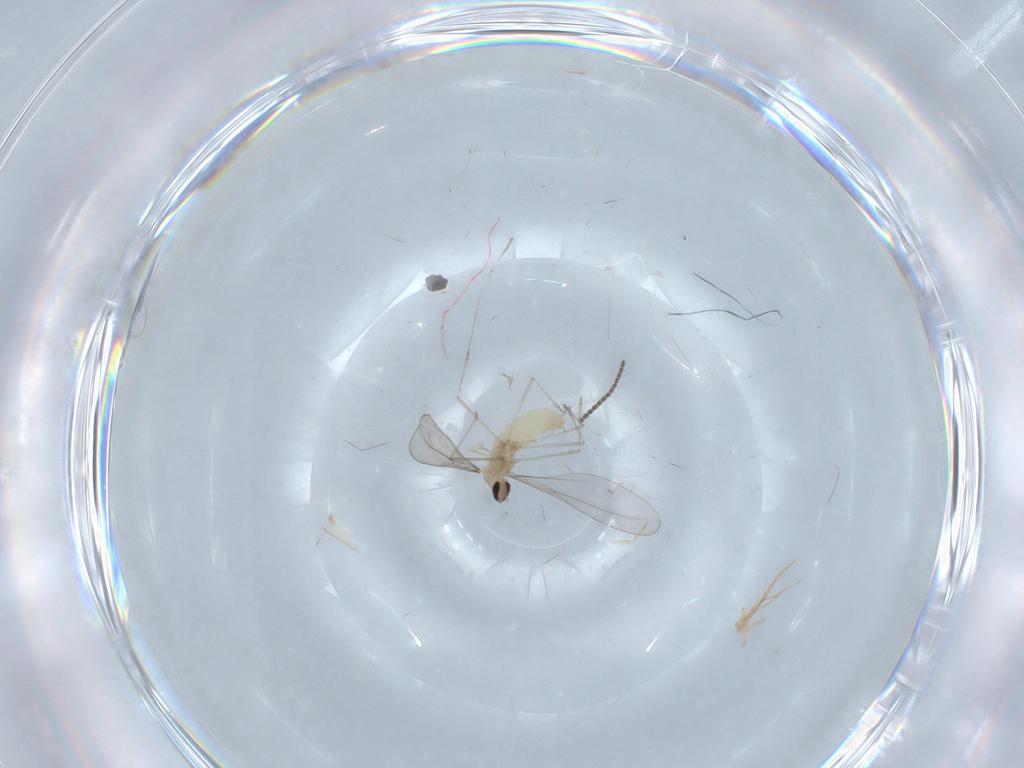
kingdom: Animalia
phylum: Arthropoda
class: Insecta
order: Diptera
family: Sciaridae
